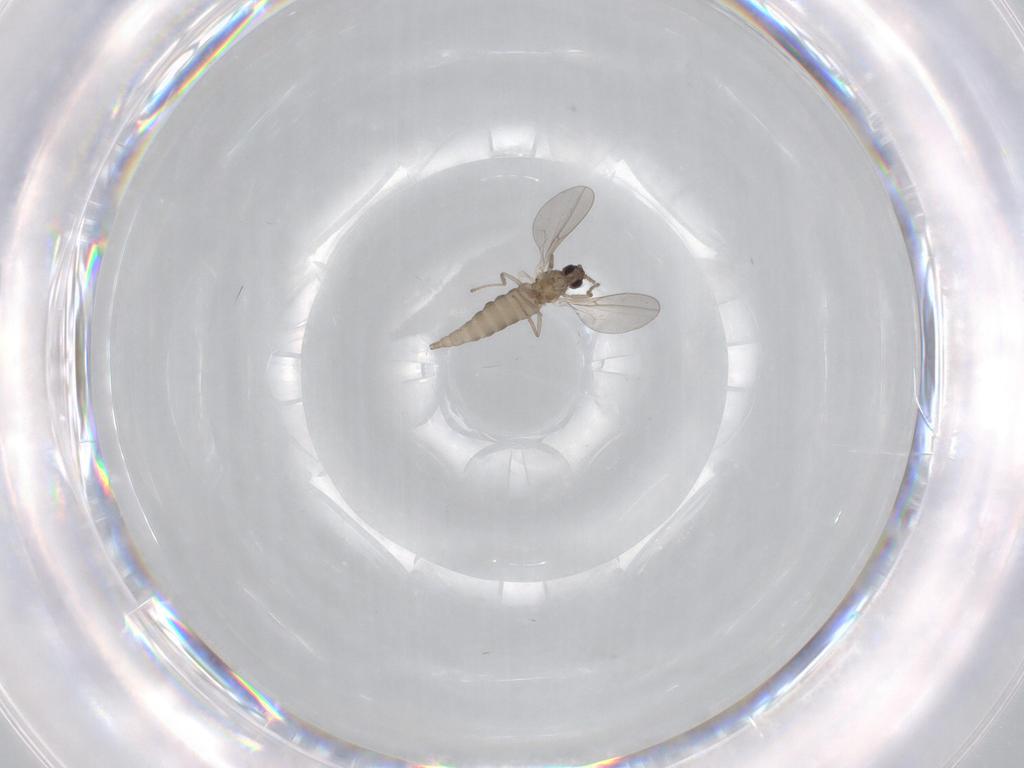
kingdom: Animalia
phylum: Arthropoda
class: Insecta
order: Diptera
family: Cecidomyiidae
